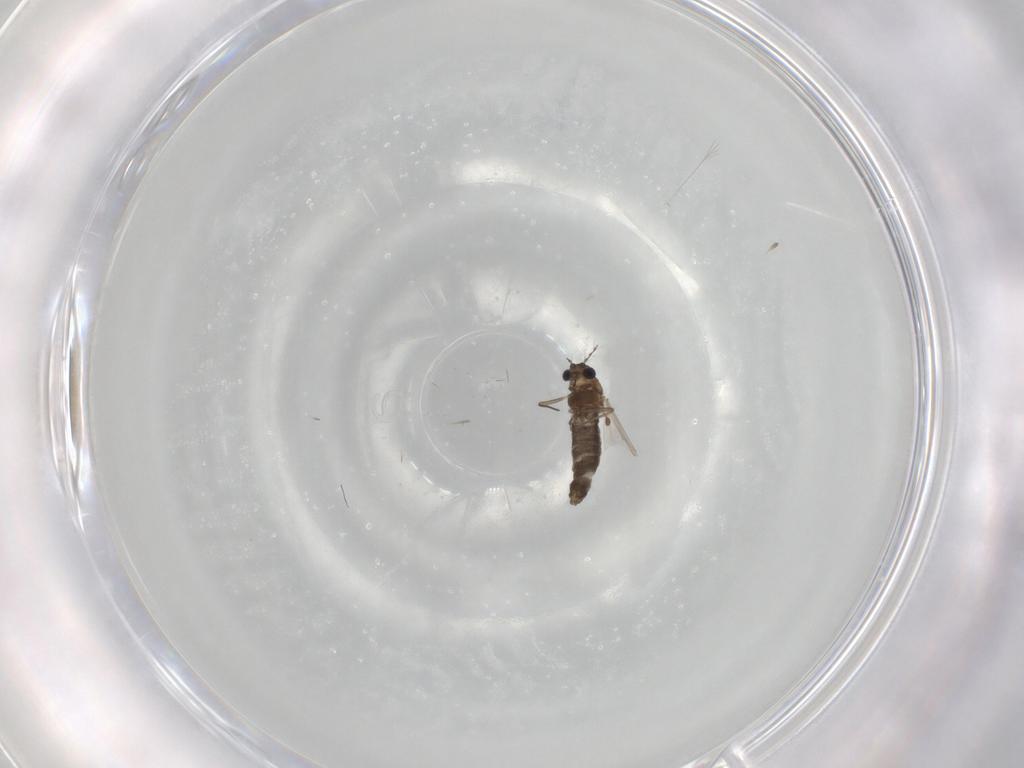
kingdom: Animalia
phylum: Arthropoda
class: Insecta
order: Diptera
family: Chironomidae
